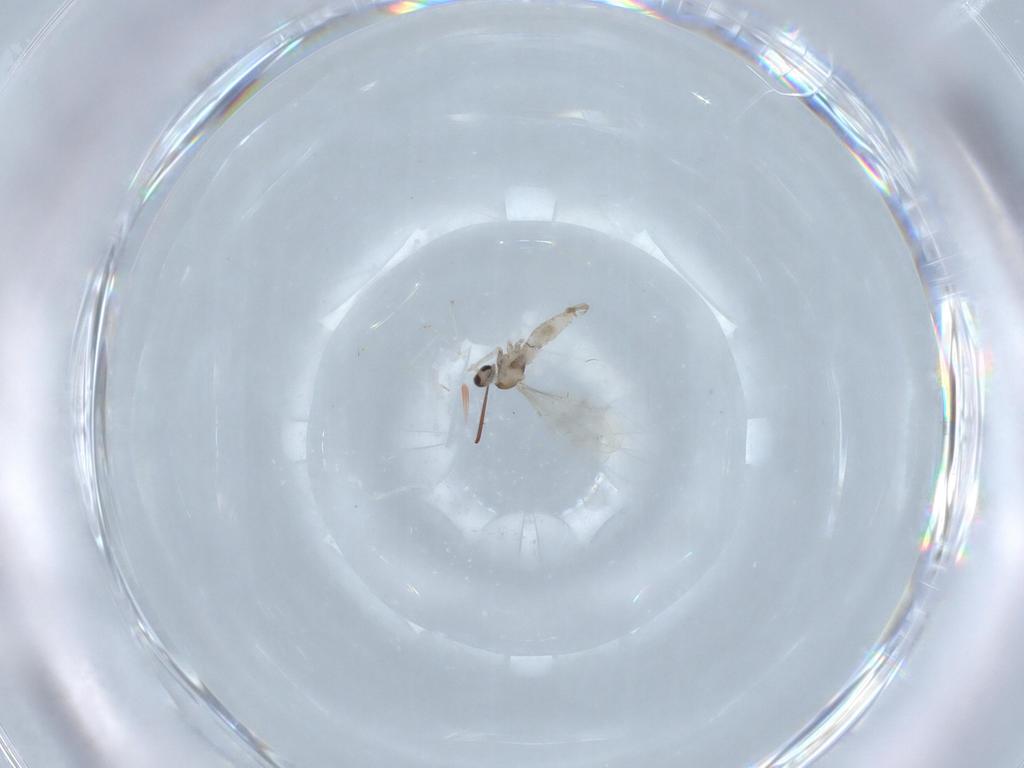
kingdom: Animalia
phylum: Arthropoda
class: Insecta
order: Diptera
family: Cecidomyiidae
